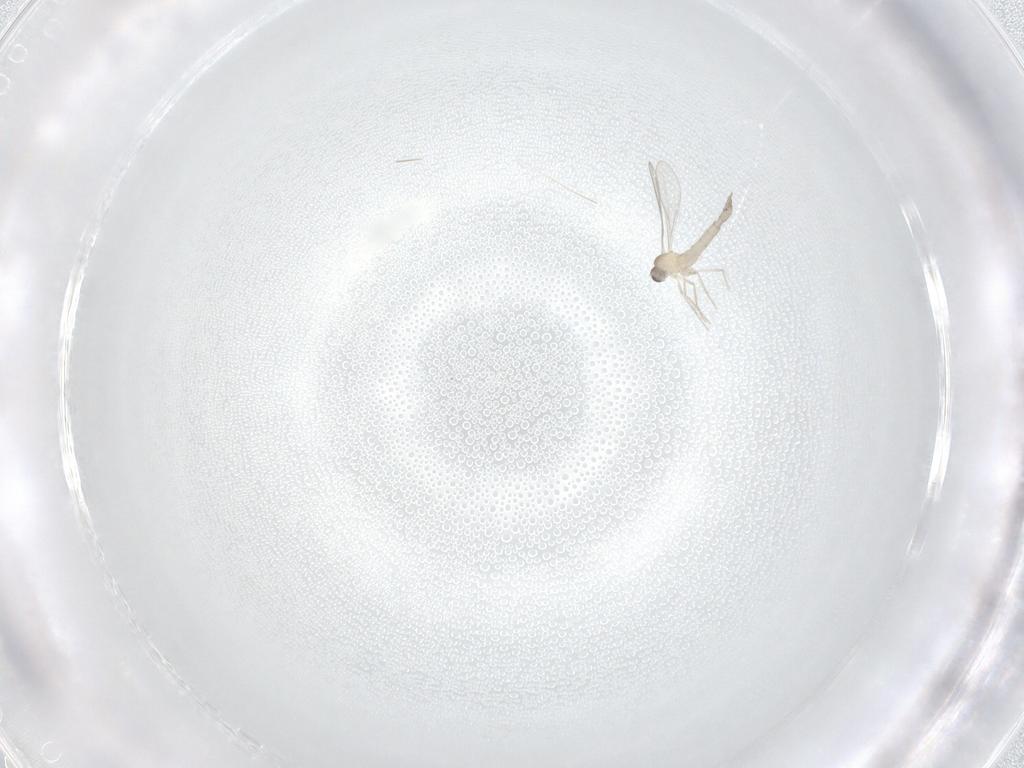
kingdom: Animalia
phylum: Arthropoda
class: Insecta
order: Diptera
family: Cecidomyiidae
